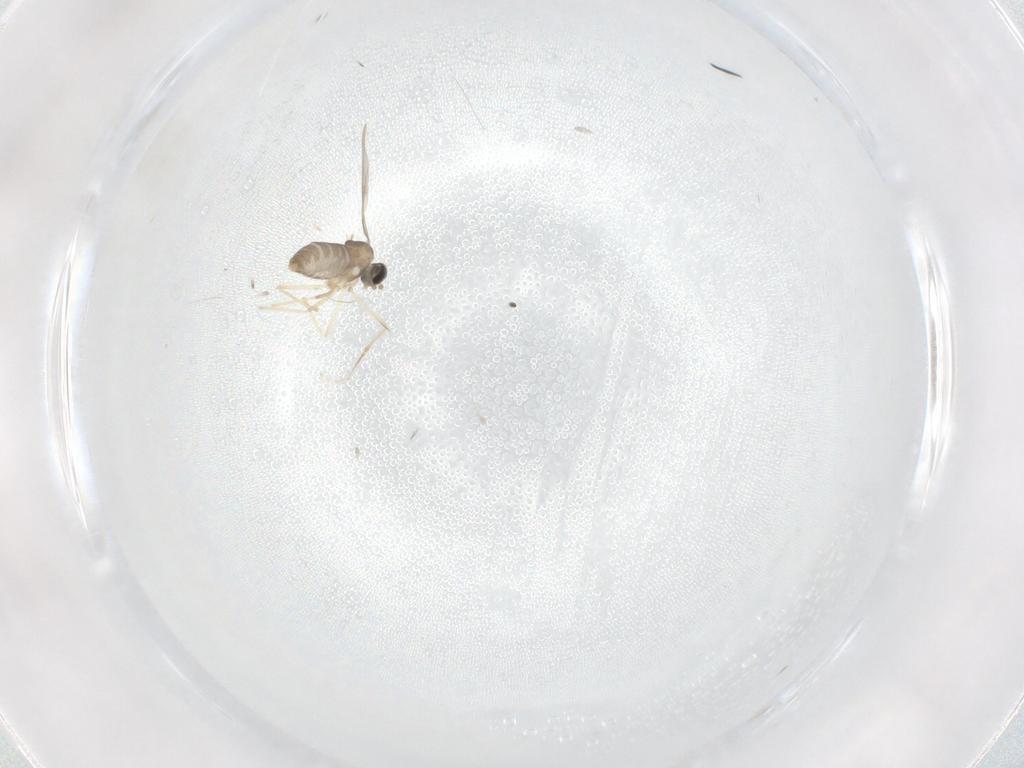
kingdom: Animalia
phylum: Arthropoda
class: Insecta
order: Diptera
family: Cecidomyiidae
